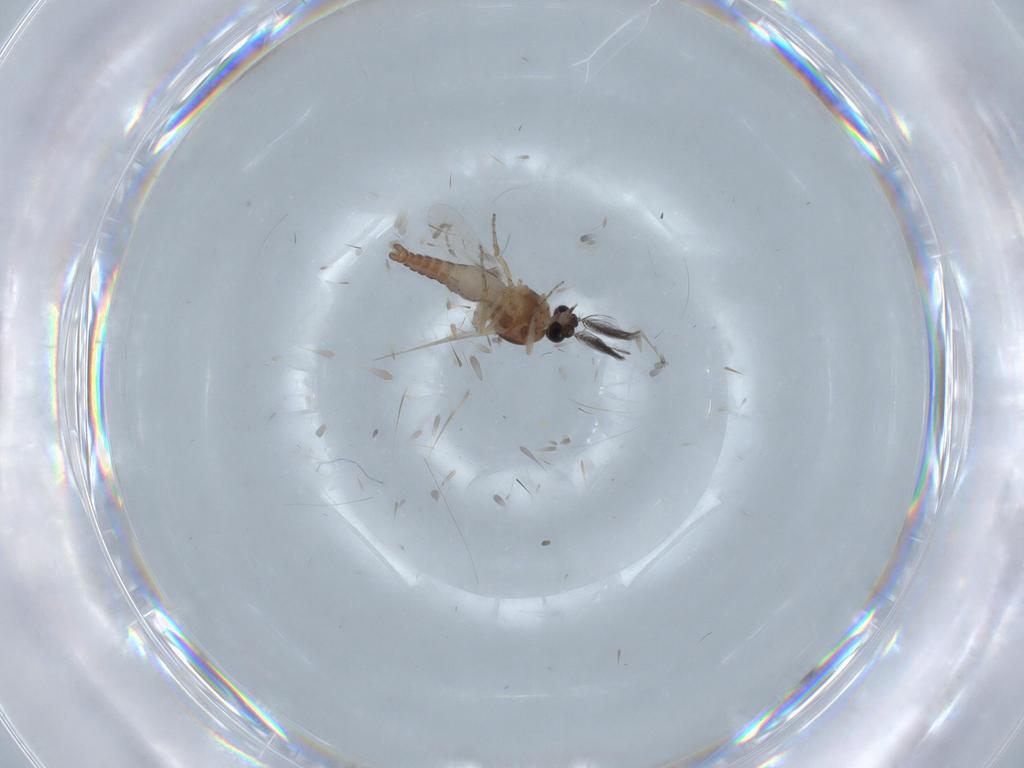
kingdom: Animalia
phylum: Arthropoda
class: Insecta
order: Diptera
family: Ceratopogonidae
